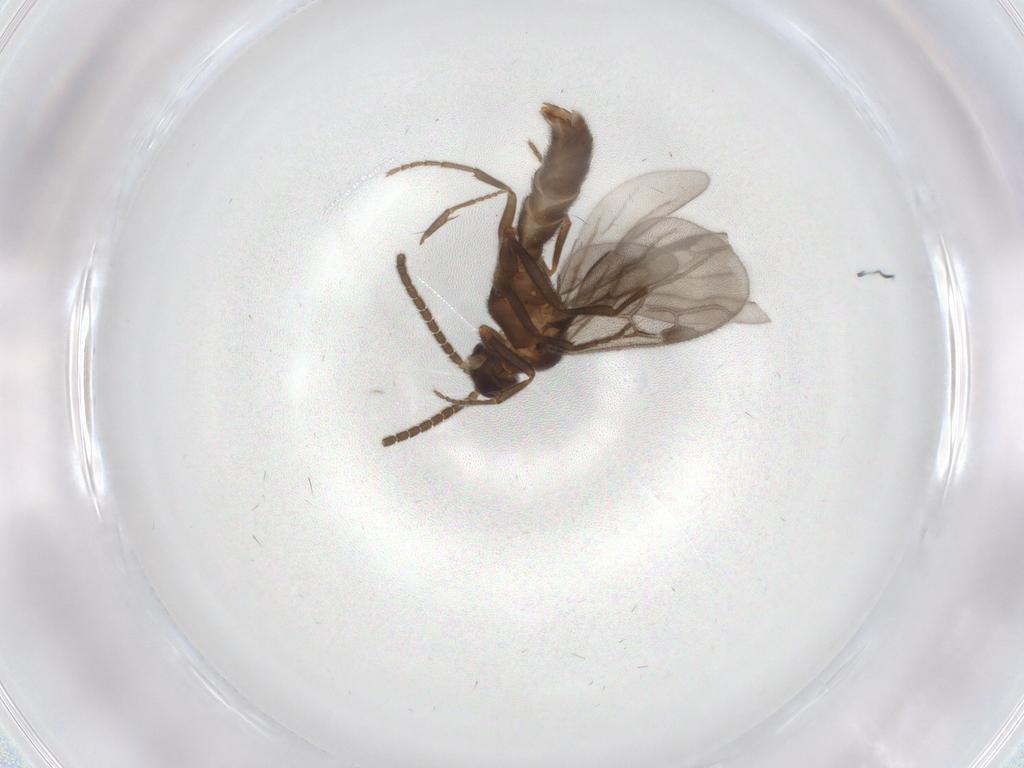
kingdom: Animalia
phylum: Arthropoda
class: Insecta
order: Hymenoptera
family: Formicidae
